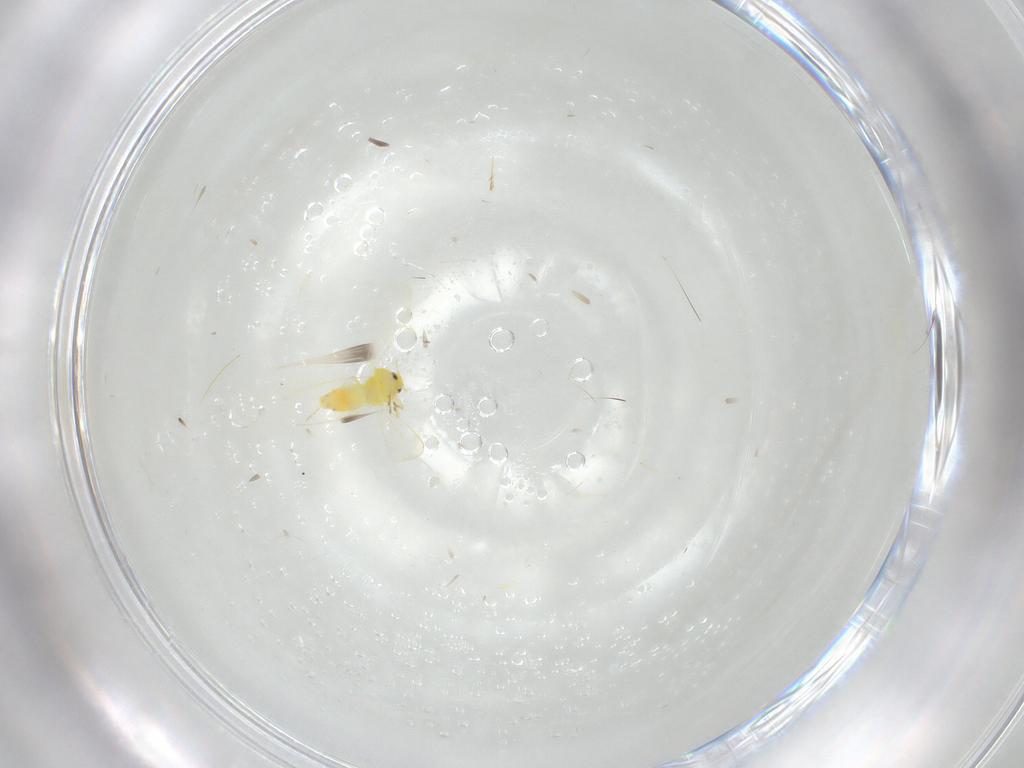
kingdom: Animalia
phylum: Arthropoda
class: Insecta
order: Hemiptera
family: Aleyrodidae
